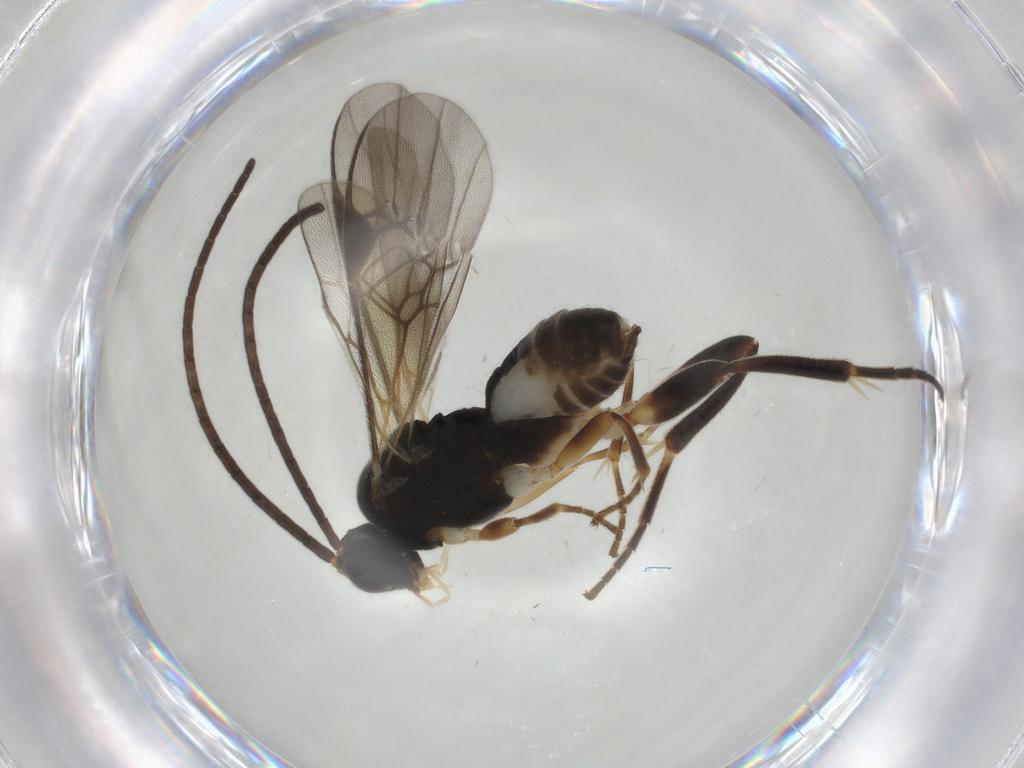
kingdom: Animalia
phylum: Arthropoda
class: Insecta
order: Hymenoptera
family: Braconidae
